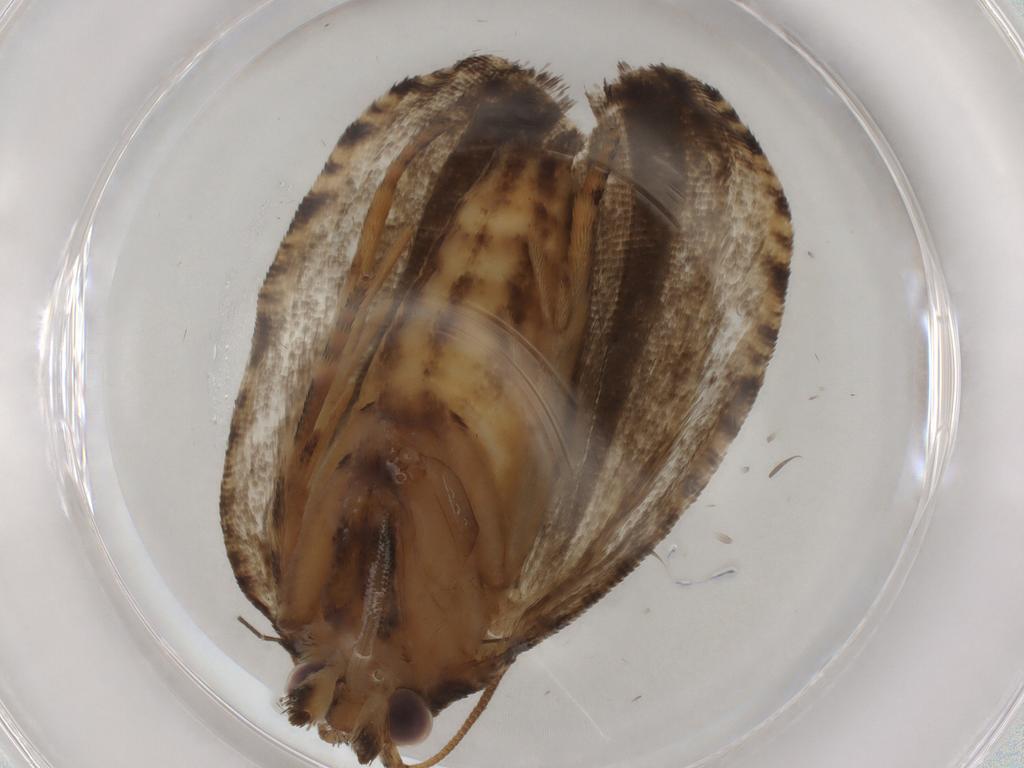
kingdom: Animalia
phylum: Arthropoda
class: Insecta
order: Lepidoptera
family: Tortricidae
